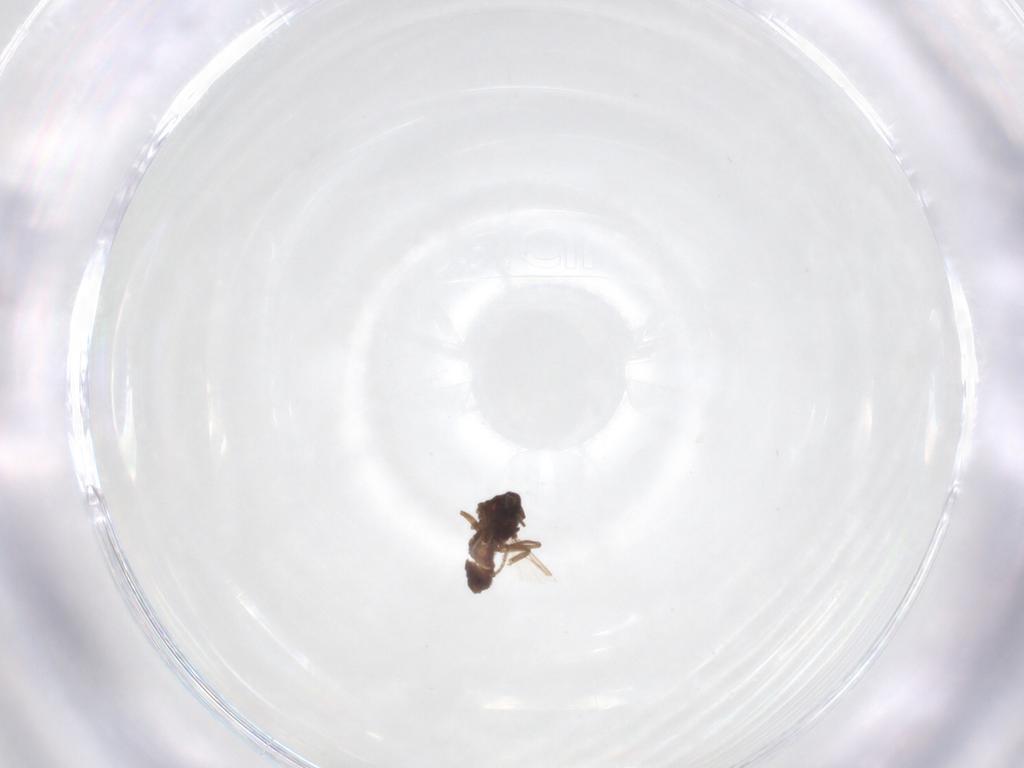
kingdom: Animalia
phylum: Arthropoda
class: Insecta
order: Diptera
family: Ceratopogonidae
